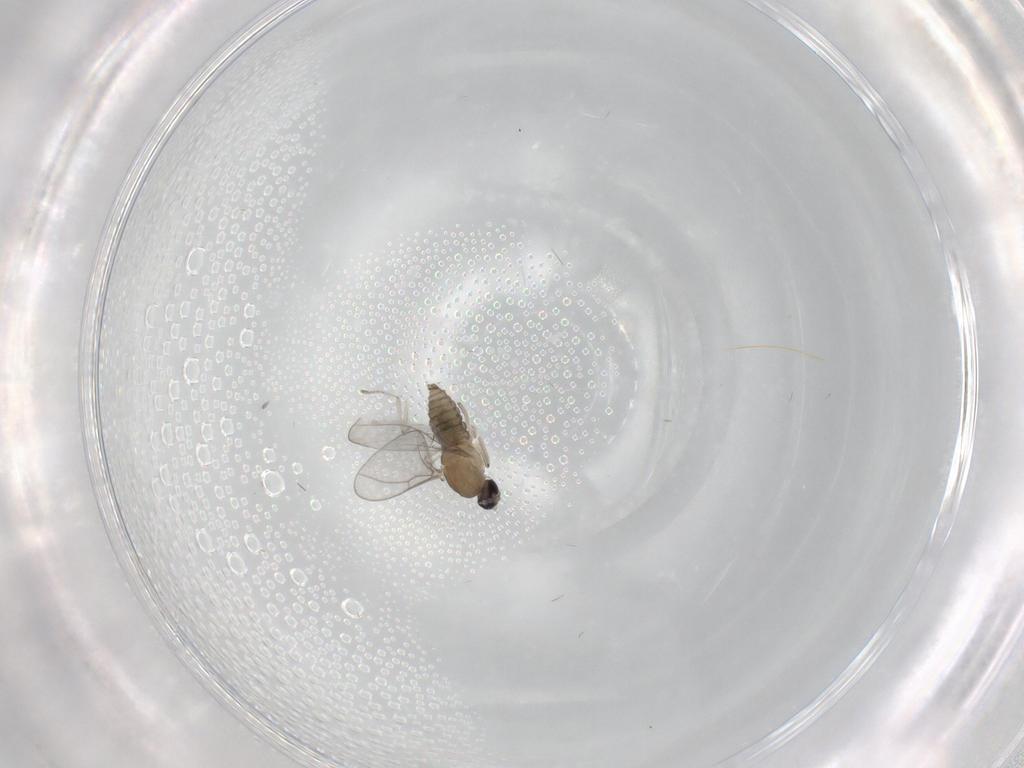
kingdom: Animalia
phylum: Arthropoda
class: Insecta
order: Diptera
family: Cecidomyiidae
